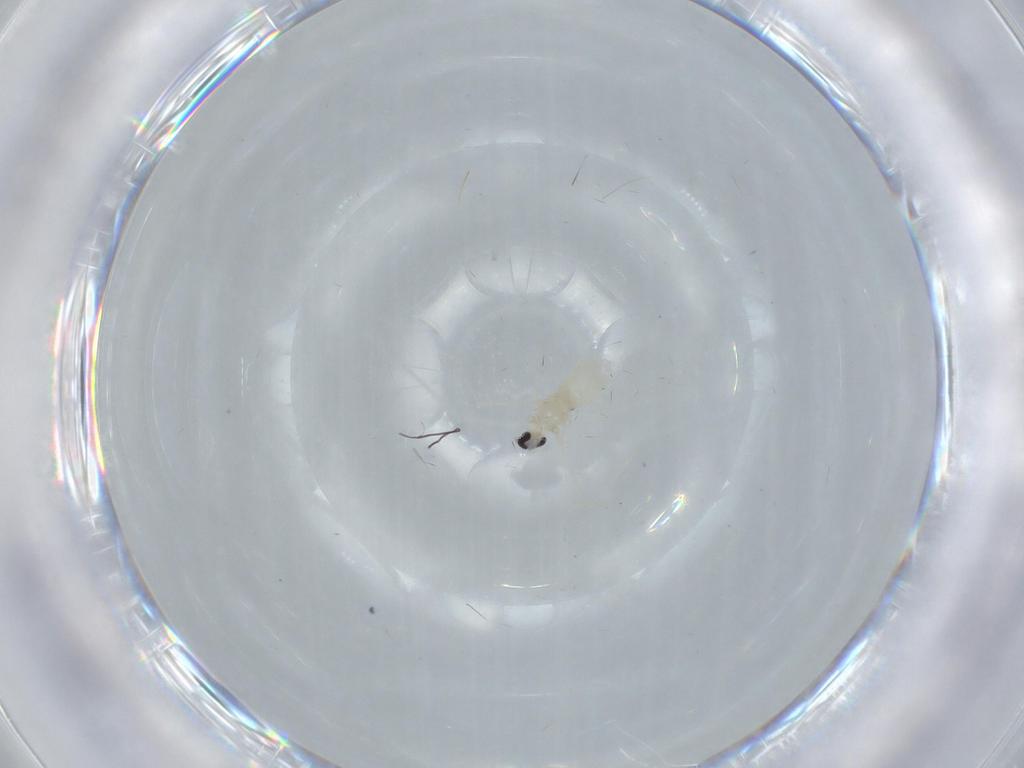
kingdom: Animalia
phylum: Arthropoda
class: Insecta
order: Diptera
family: Cecidomyiidae
